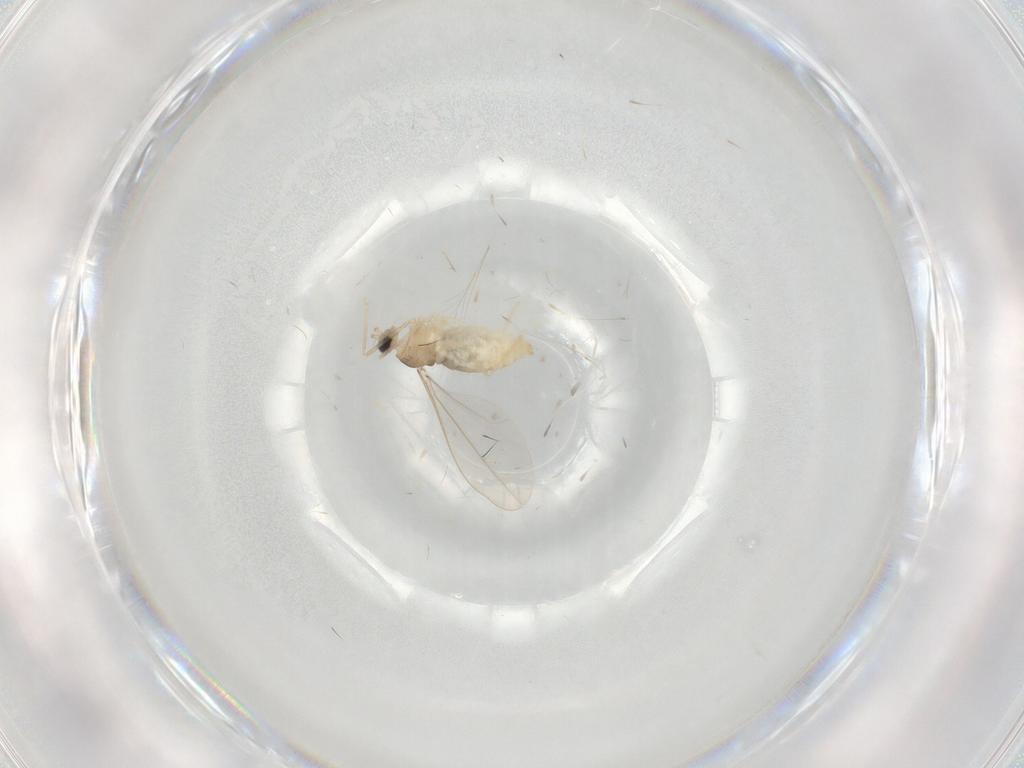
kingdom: Animalia
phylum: Arthropoda
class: Insecta
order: Diptera
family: Cecidomyiidae
